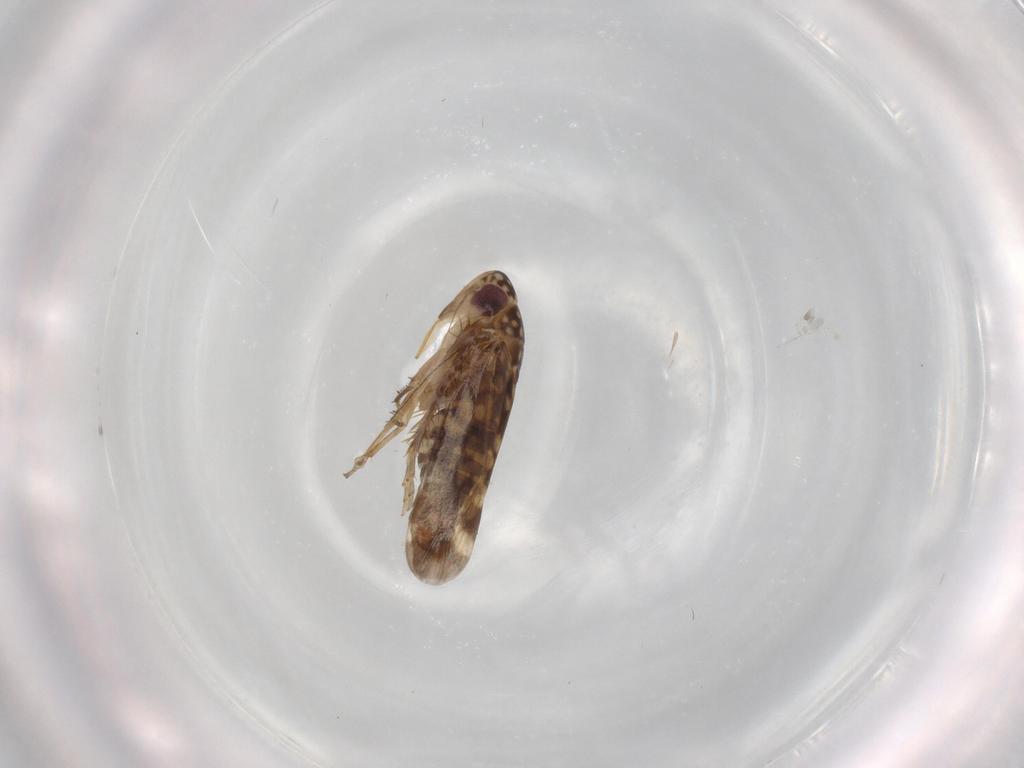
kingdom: Animalia
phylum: Arthropoda
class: Insecta
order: Hemiptera
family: Cicadellidae
